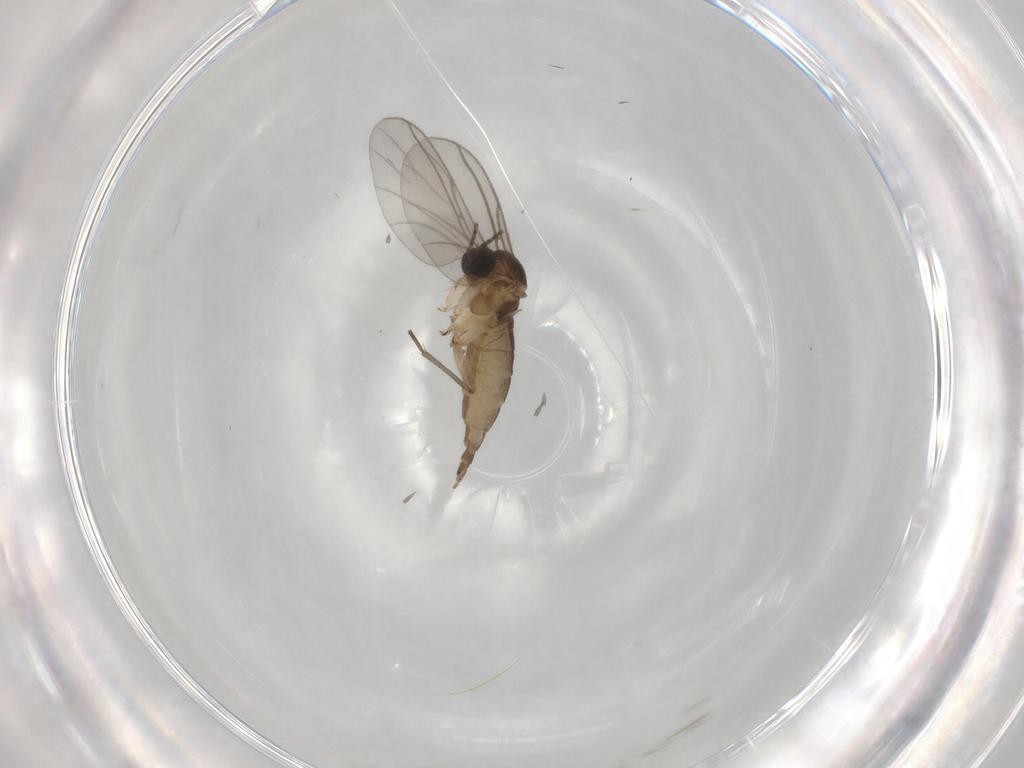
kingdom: Animalia
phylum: Arthropoda
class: Insecta
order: Diptera
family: Sciaridae
